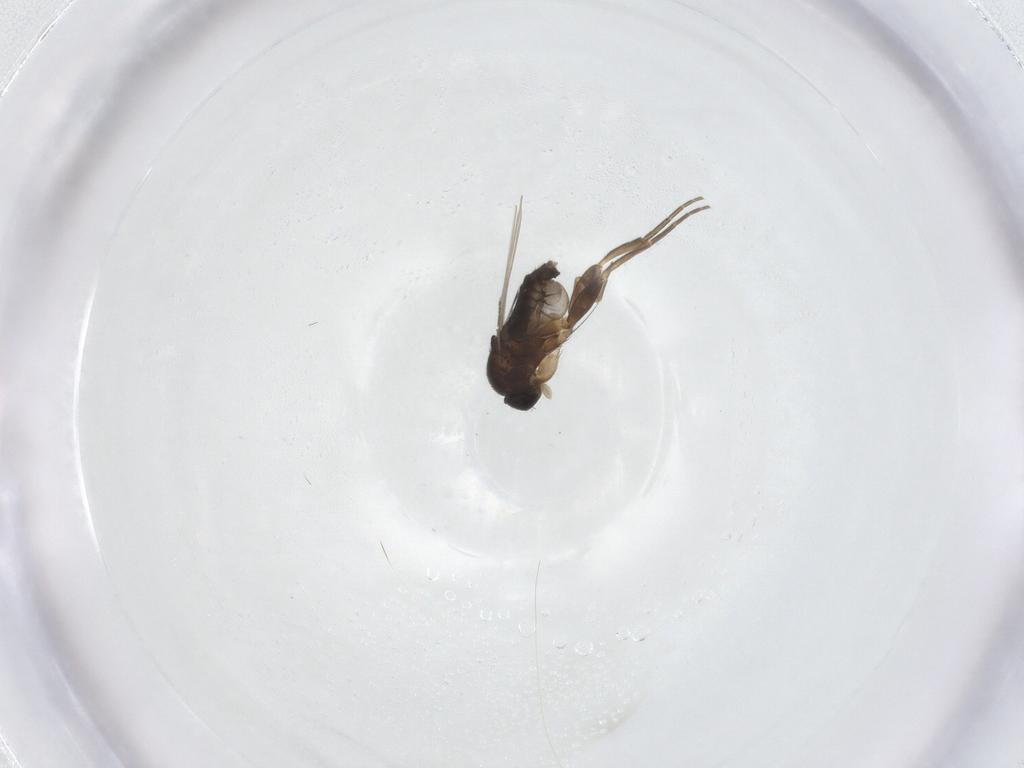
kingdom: Animalia
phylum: Arthropoda
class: Insecta
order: Diptera
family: Phoridae
